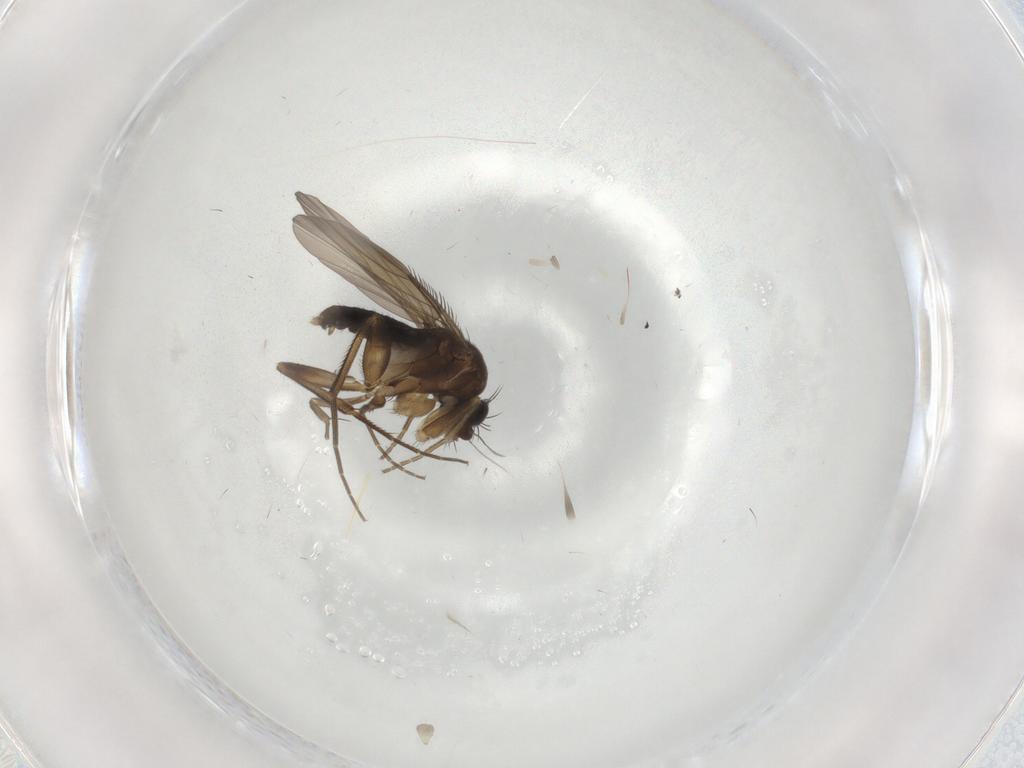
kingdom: Animalia
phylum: Arthropoda
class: Insecta
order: Diptera
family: Phoridae
